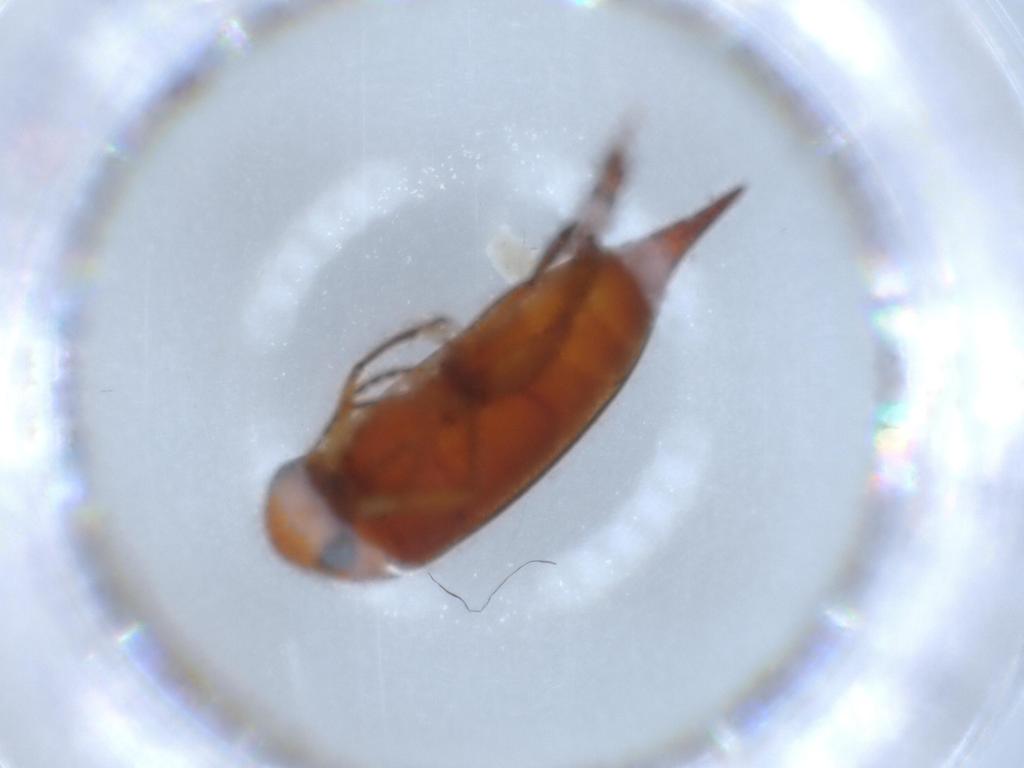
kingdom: Animalia
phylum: Arthropoda
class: Insecta
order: Coleoptera
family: Mordellidae
